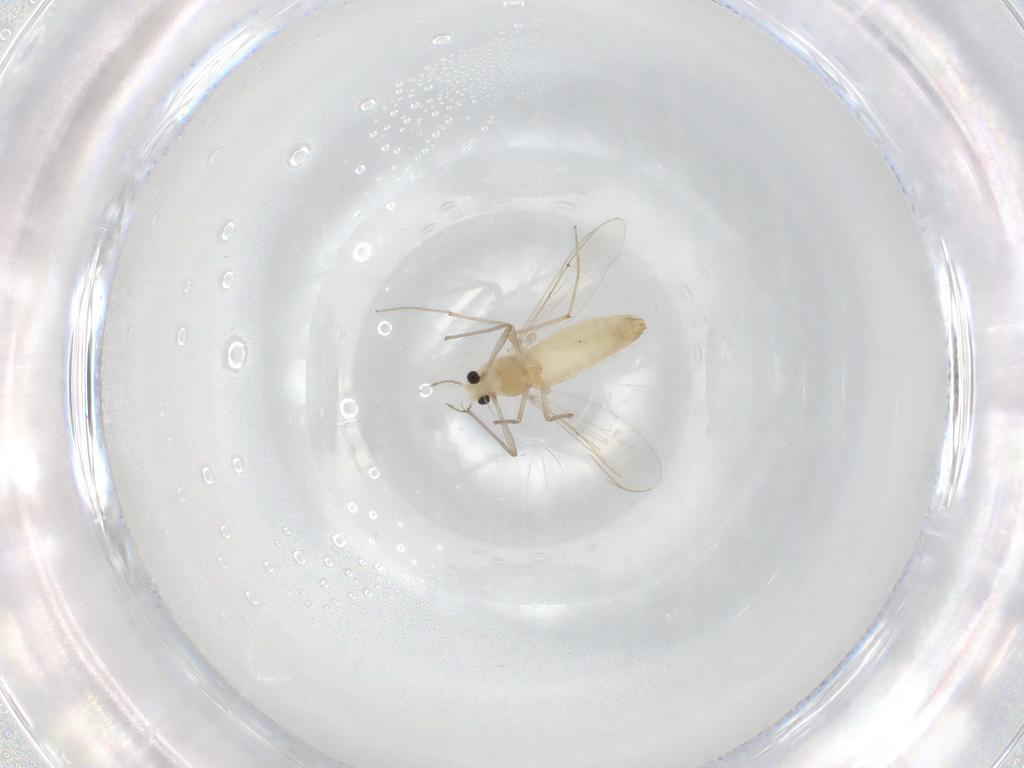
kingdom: Animalia
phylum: Arthropoda
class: Insecta
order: Diptera
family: Chironomidae
